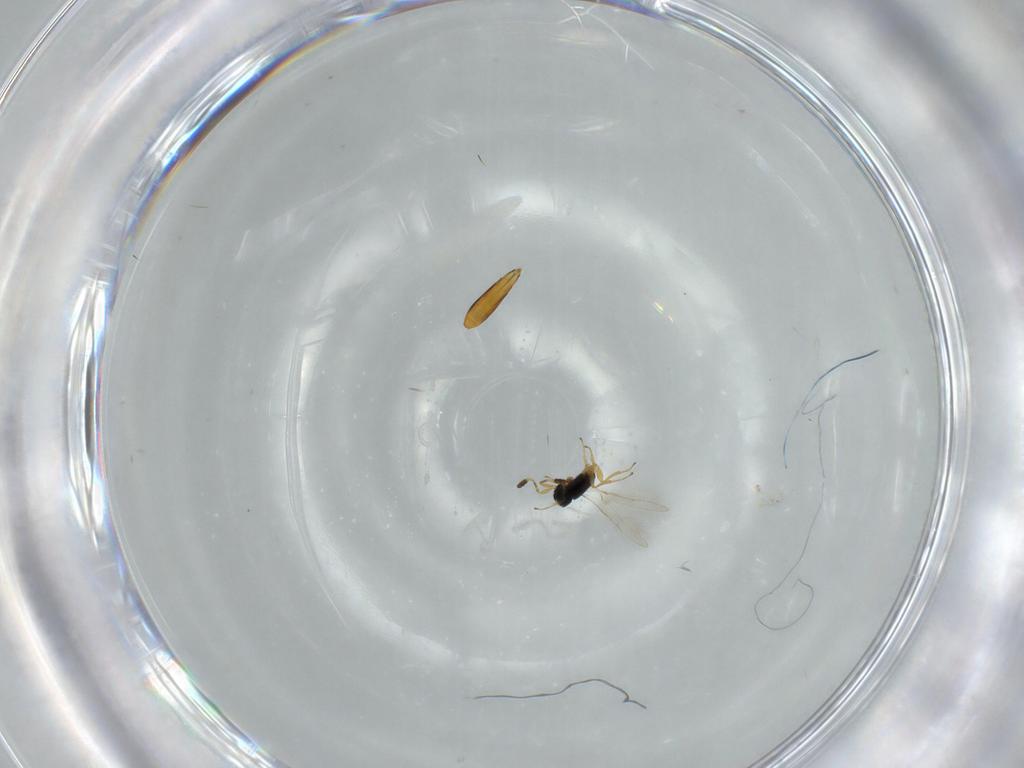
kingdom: Animalia
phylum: Arthropoda
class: Insecta
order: Hymenoptera
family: Scelionidae
